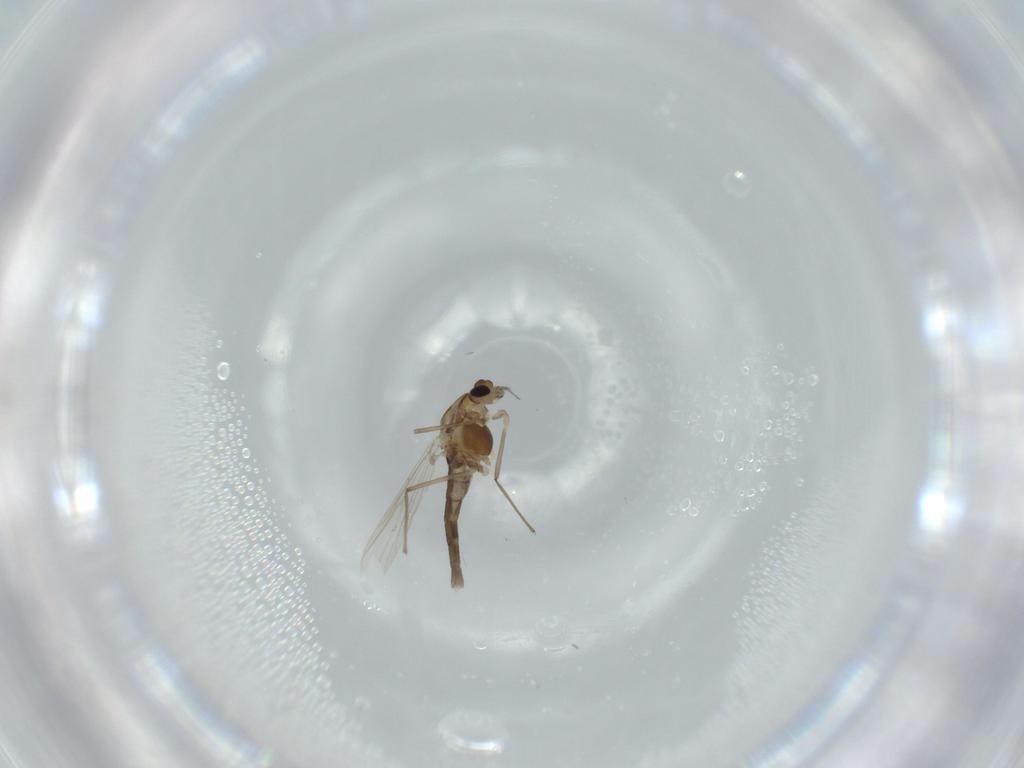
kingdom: Animalia
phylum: Arthropoda
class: Insecta
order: Diptera
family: Chironomidae
